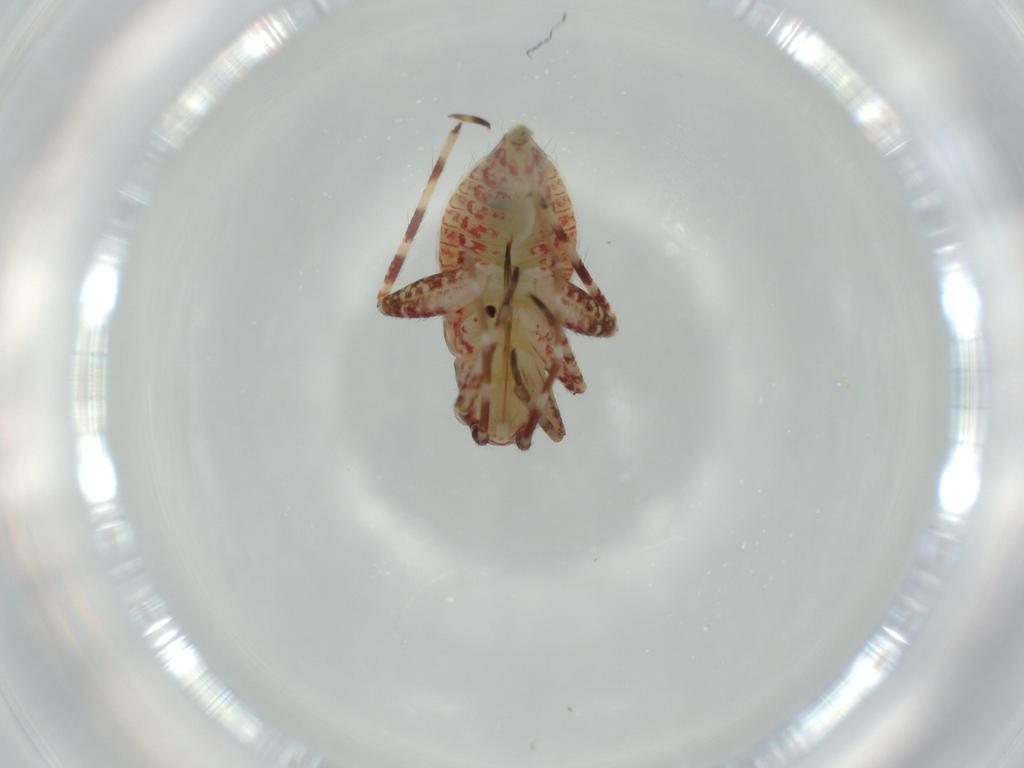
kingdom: Animalia
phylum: Arthropoda
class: Insecta
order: Hemiptera
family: Miridae
